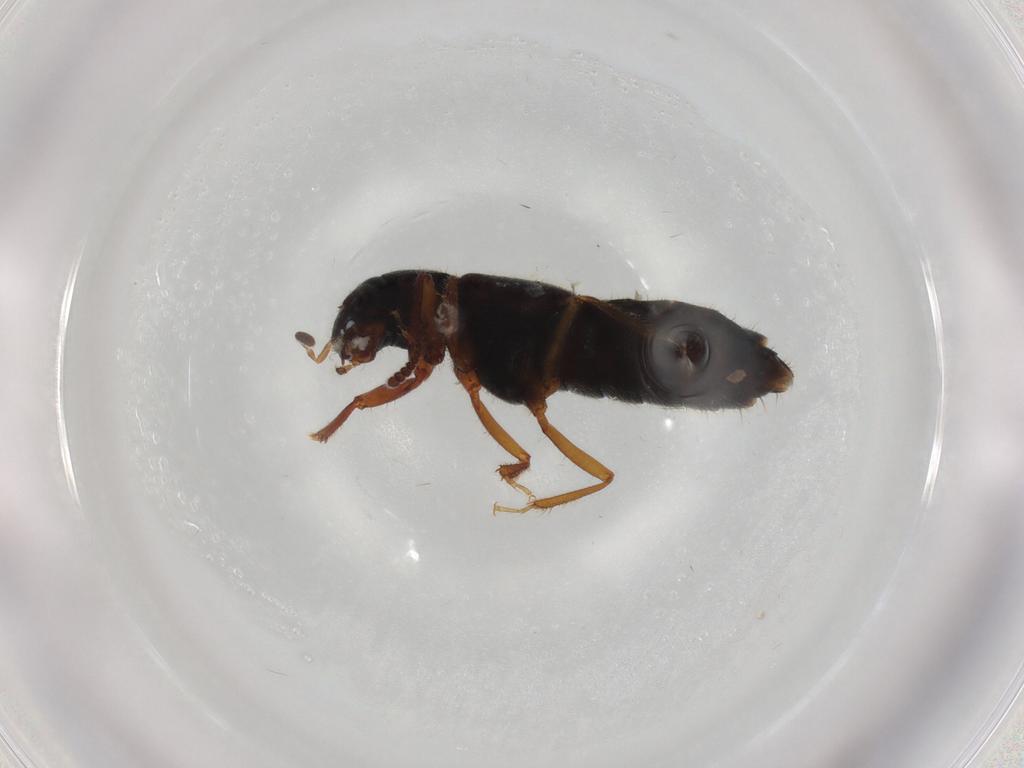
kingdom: Animalia
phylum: Arthropoda
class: Insecta
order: Coleoptera
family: Staphylinidae
